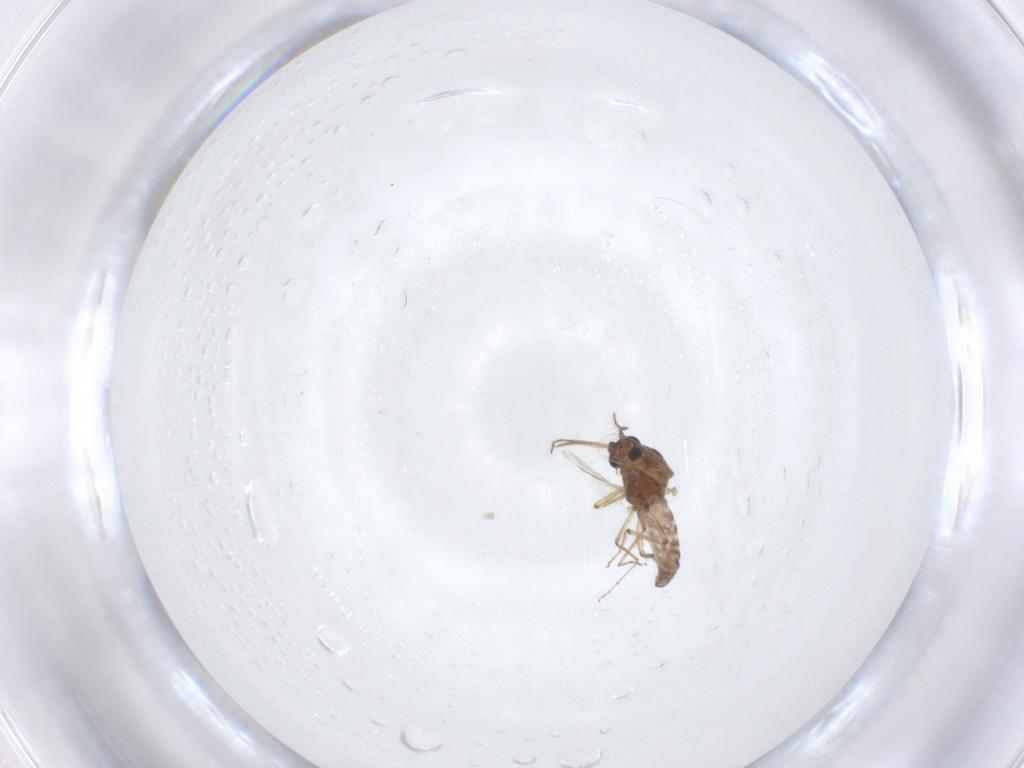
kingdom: Animalia
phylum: Arthropoda
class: Insecta
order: Diptera
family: Ceratopogonidae
